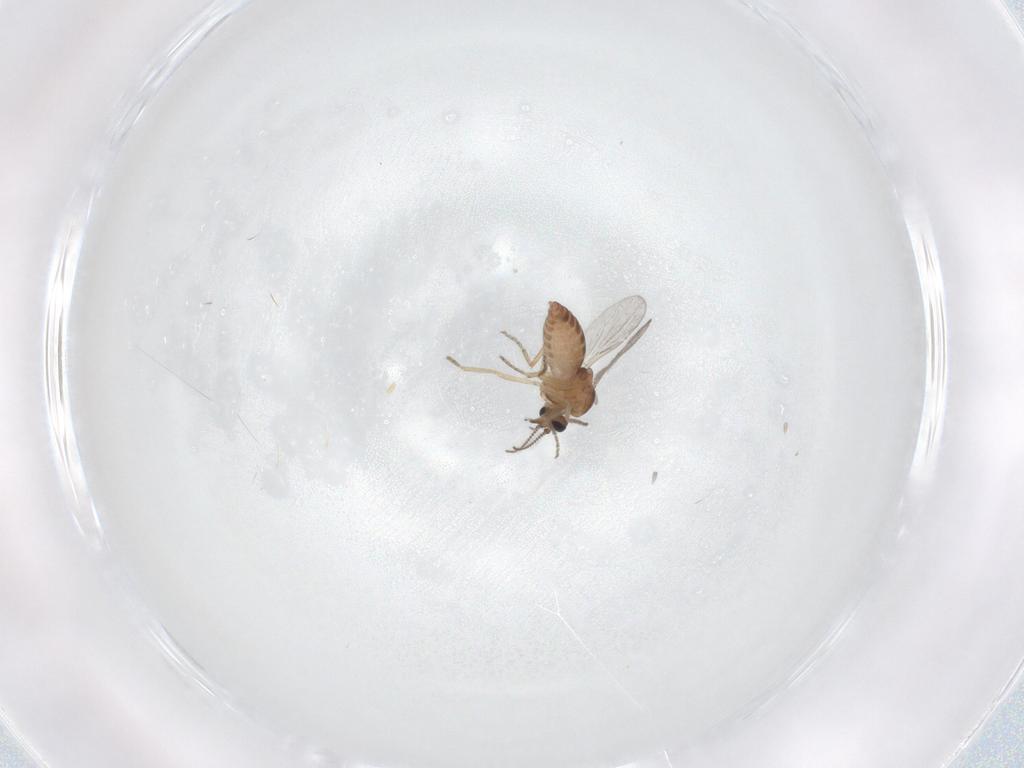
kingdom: Animalia
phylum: Arthropoda
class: Insecta
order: Diptera
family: Ceratopogonidae
